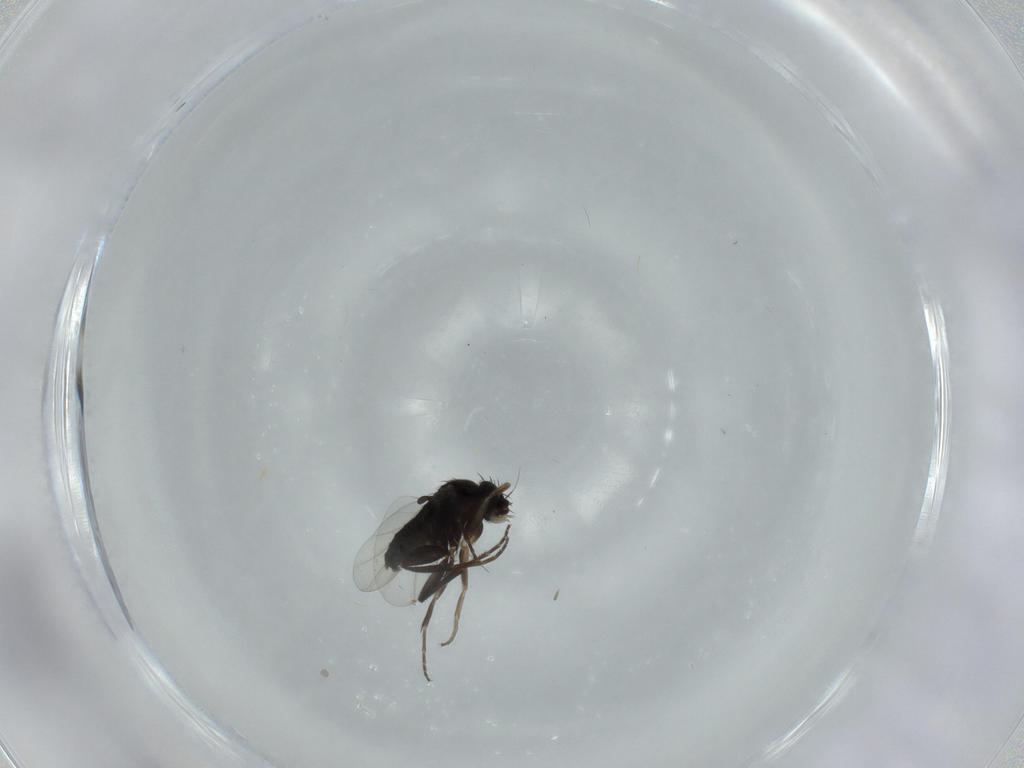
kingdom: Animalia
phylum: Arthropoda
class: Insecta
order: Diptera
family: Phoridae
